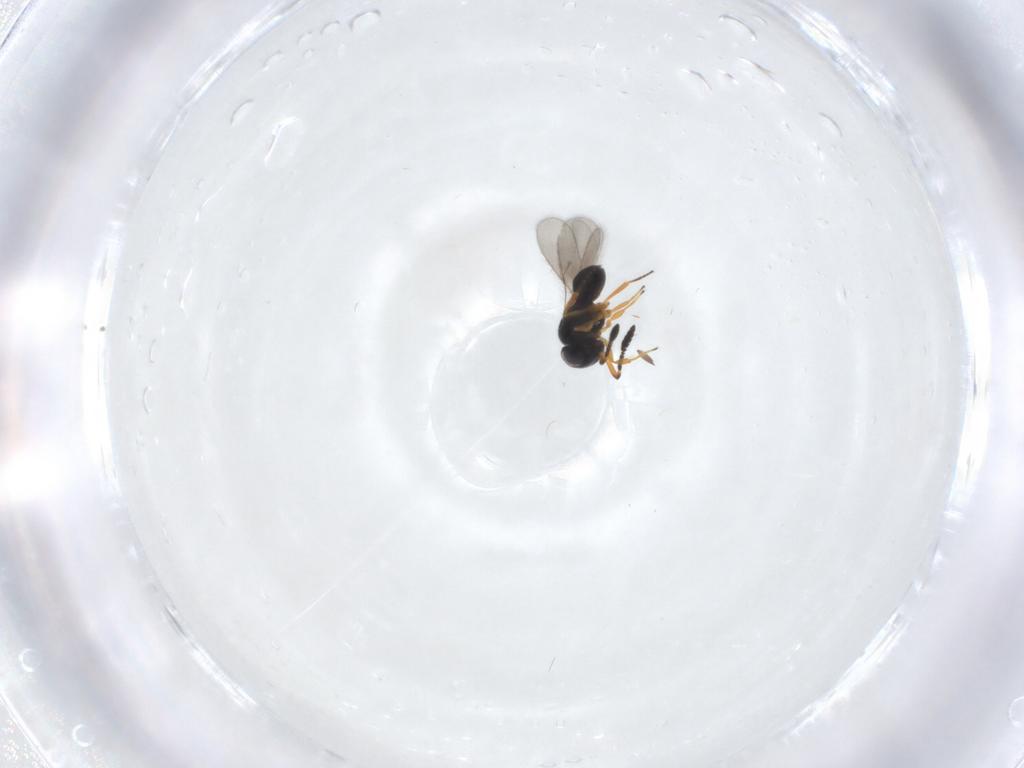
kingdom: Animalia
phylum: Arthropoda
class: Insecta
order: Hymenoptera
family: Scelionidae
